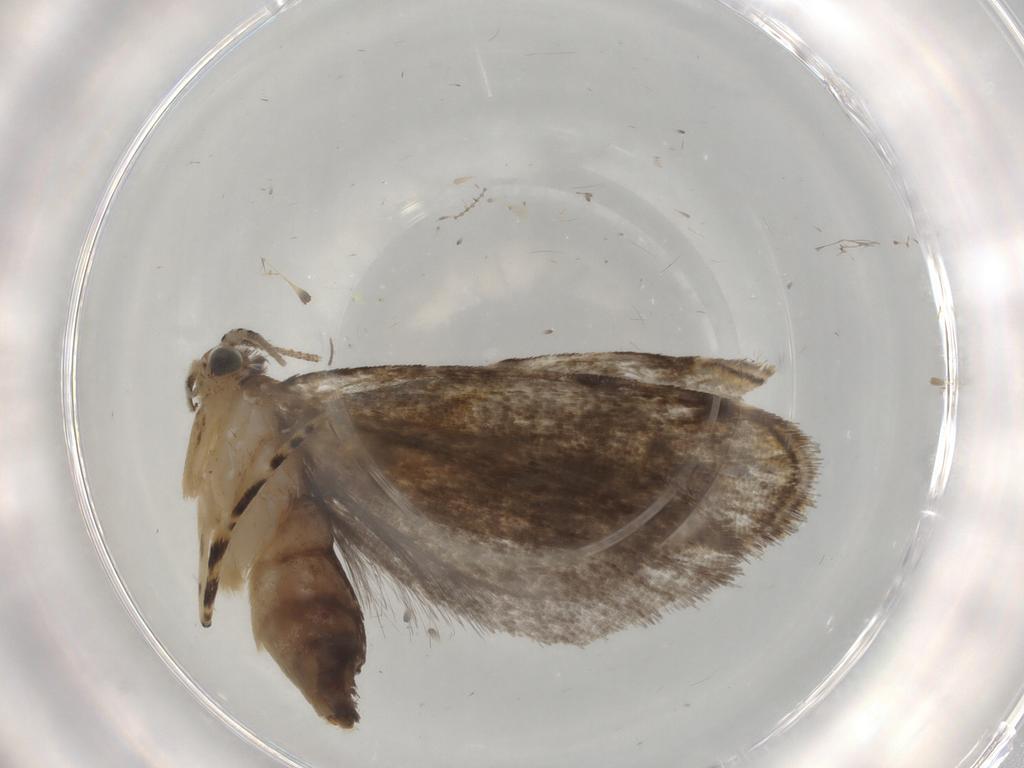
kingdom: Animalia
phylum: Arthropoda
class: Insecta
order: Lepidoptera
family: Tineidae
